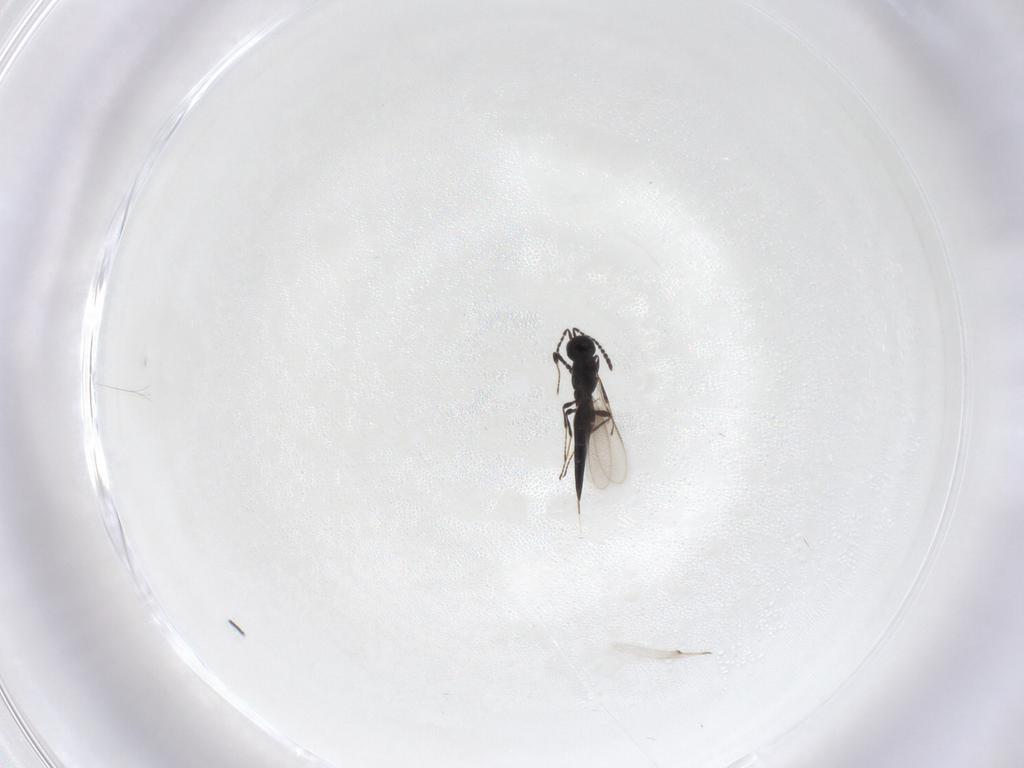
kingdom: Animalia
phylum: Arthropoda
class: Insecta
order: Hymenoptera
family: Scelionidae
